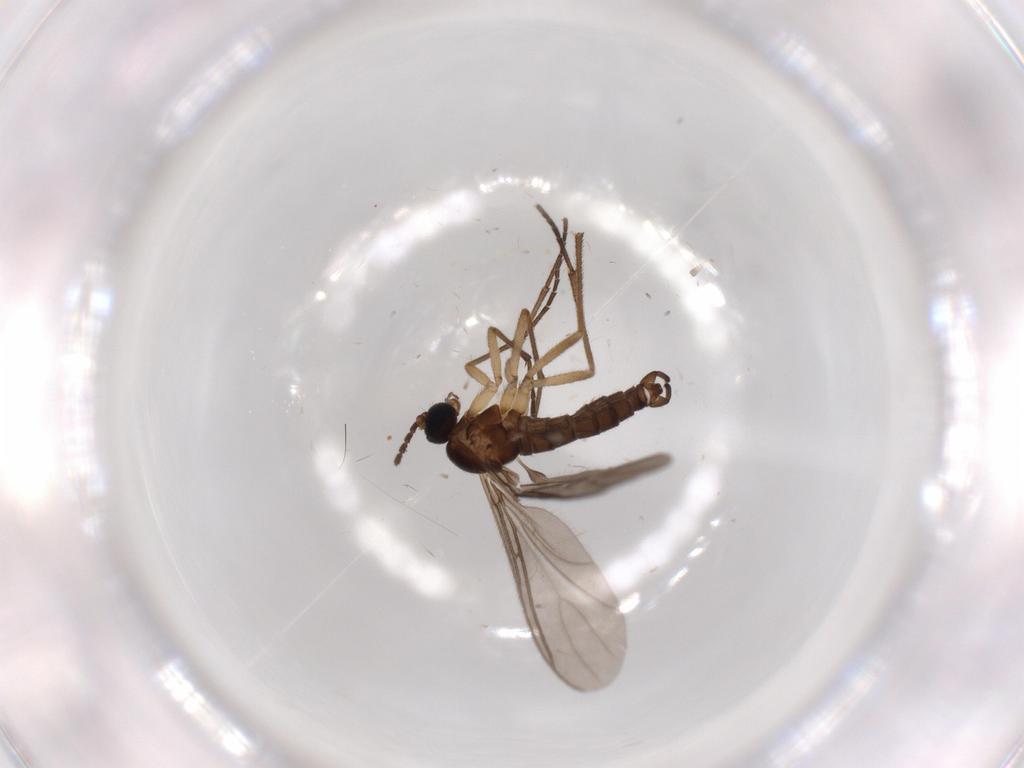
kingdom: Animalia
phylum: Arthropoda
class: Insecta
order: Diptera
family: Sciaridae
